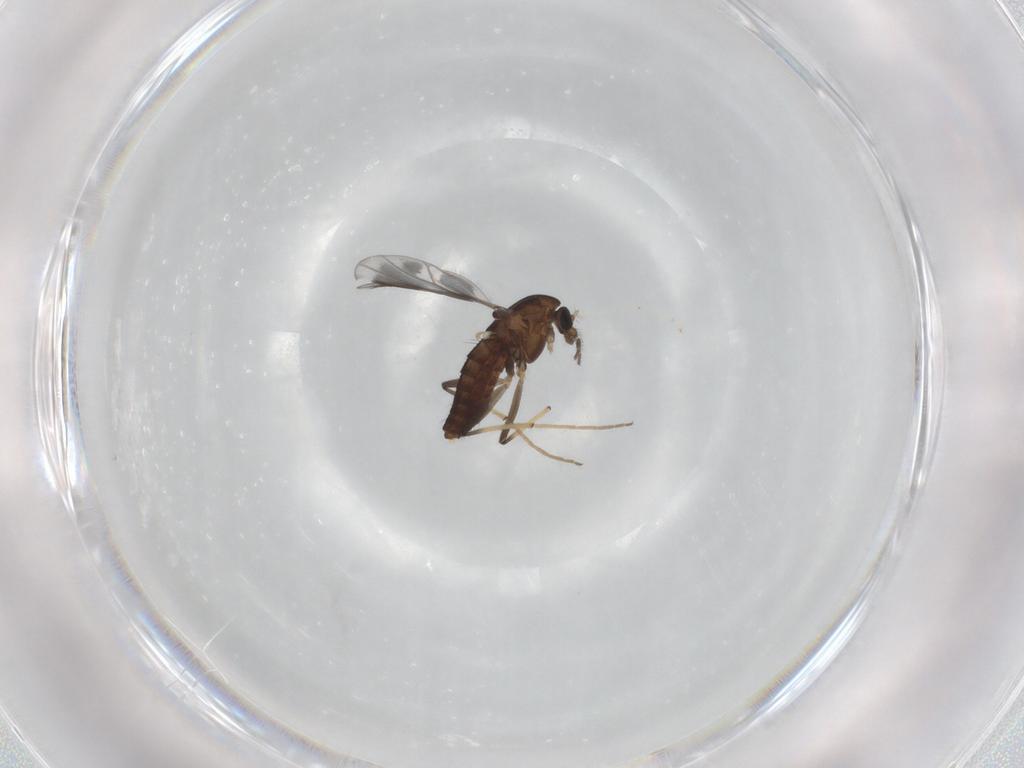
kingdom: Animalia
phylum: Arthropoda
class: Insecta
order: Diptera
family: Chironomidae
